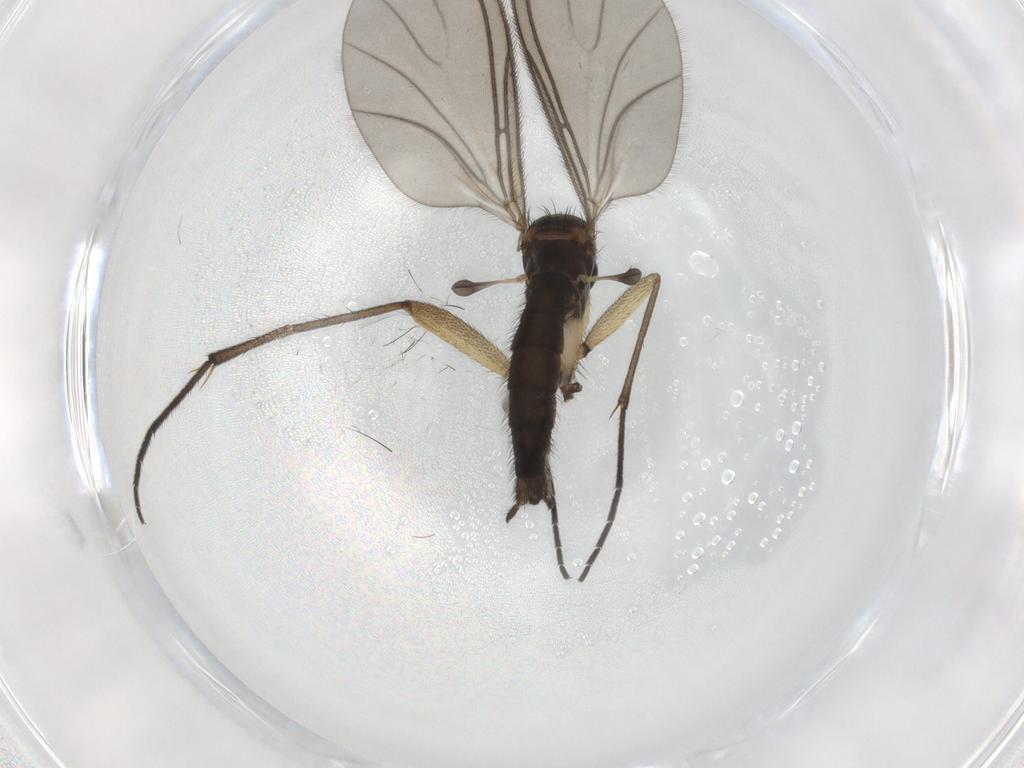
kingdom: Animalia
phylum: Arthropoda
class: Insecta
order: Diptera
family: Sciaridae
